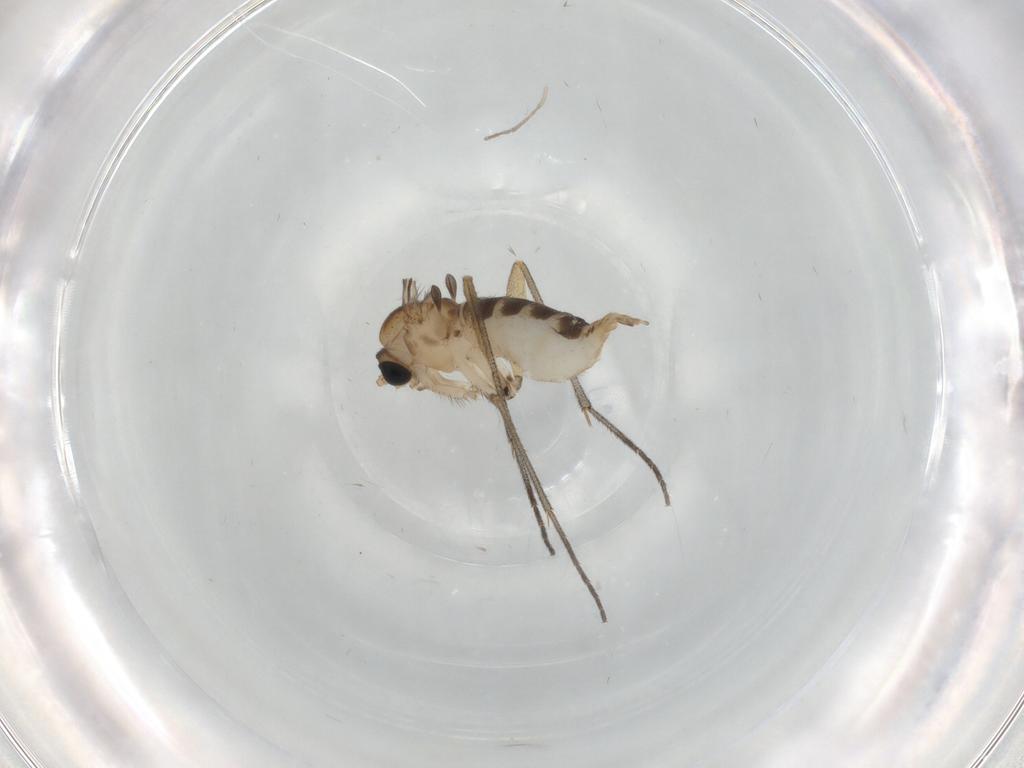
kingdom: Animalia
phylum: Arthropoda
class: Insecta
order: Diptera
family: Sciaridae
